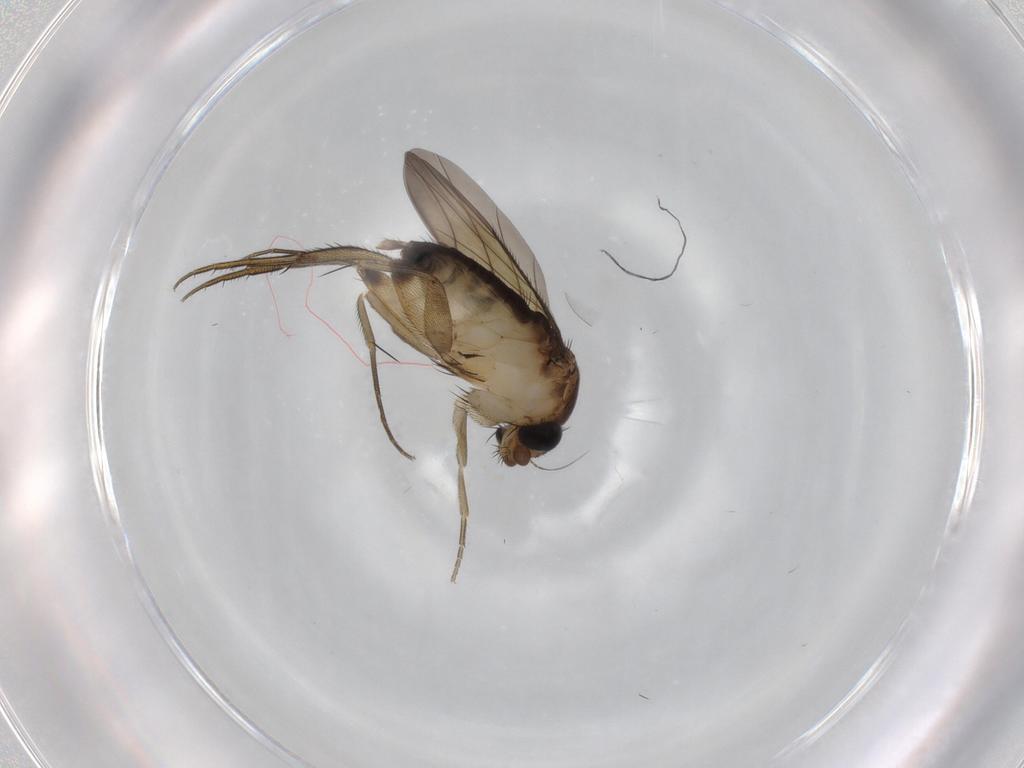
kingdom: Animalia
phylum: Arthropoda
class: Insecta
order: Diptera
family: Phoridae
